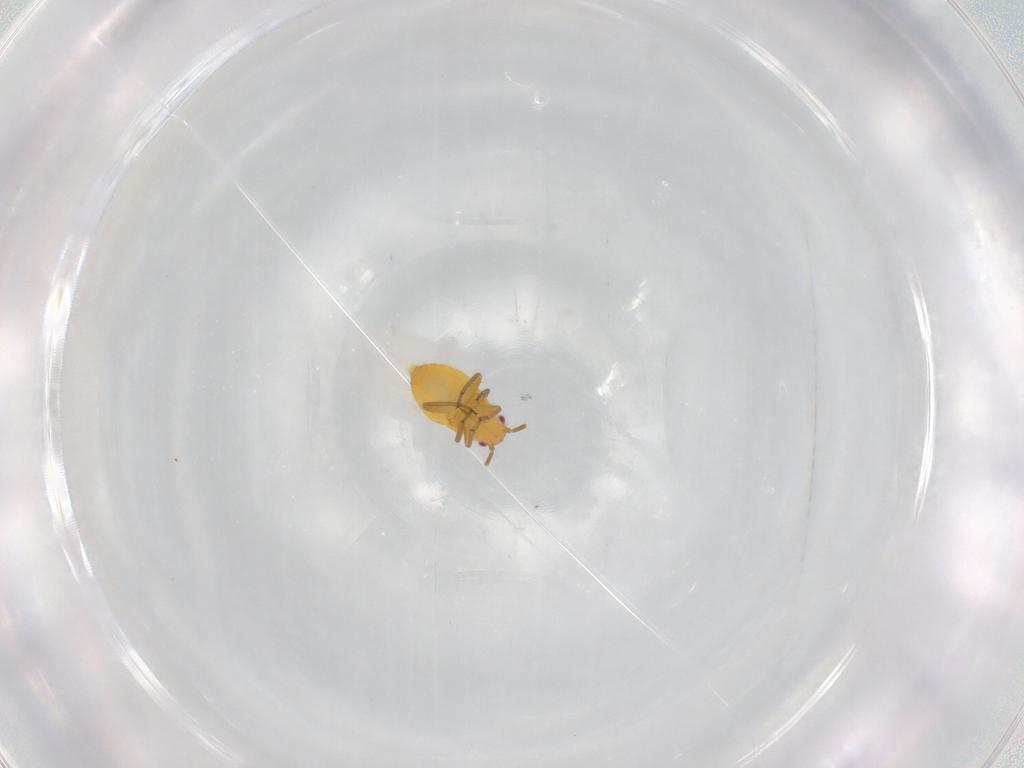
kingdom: Animalia
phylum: Arthropoda
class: Insecta
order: Hemiptera
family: Miridae
